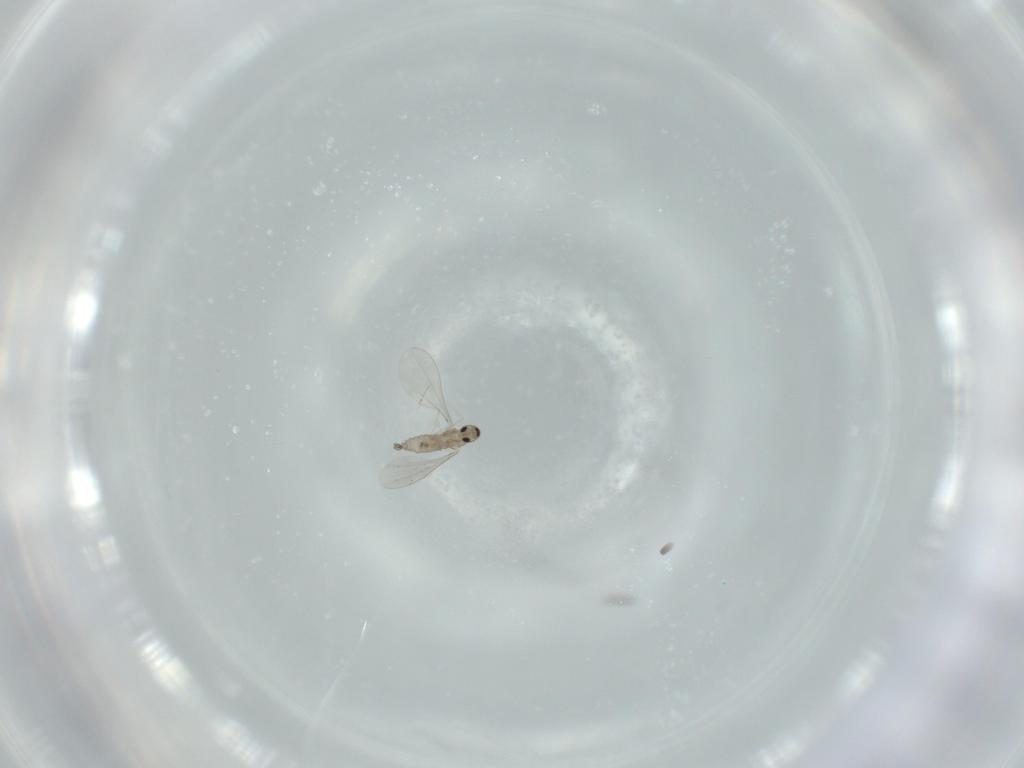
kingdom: Animalia
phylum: Arthropoda
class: Insecta
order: Diptera
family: Cecidomyiidae
